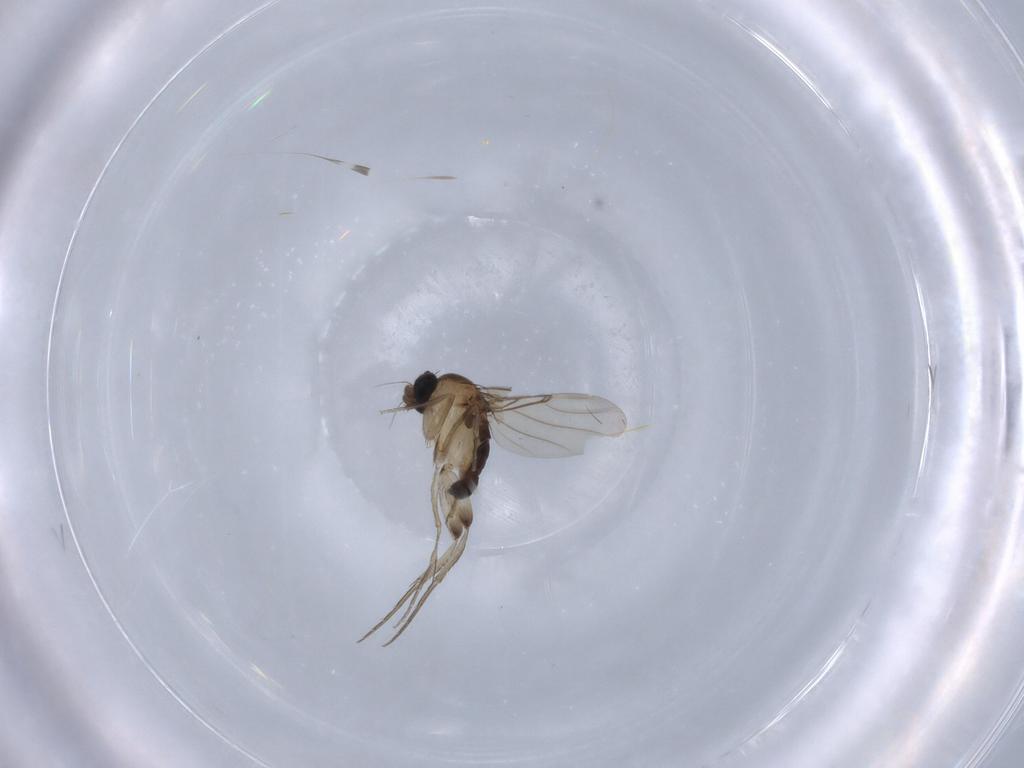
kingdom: Animalia
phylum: Arthropoda
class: Insecta
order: Diptera
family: Phoridae
